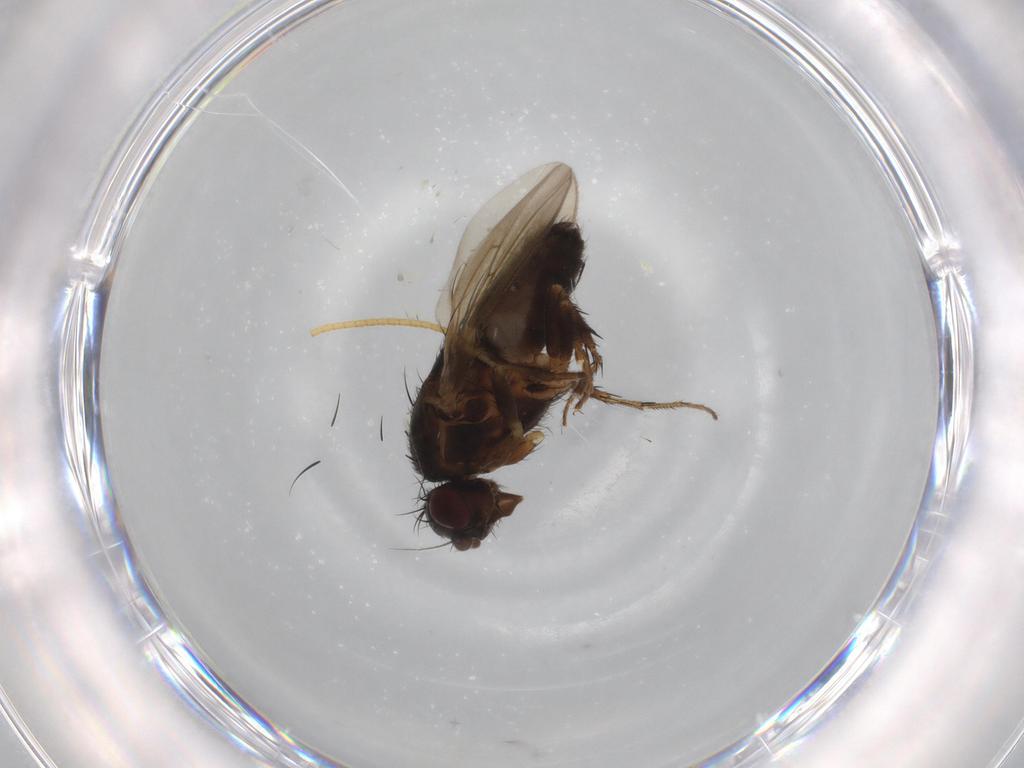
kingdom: Animalia
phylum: Arthropoda
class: Insecta
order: Diptera
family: Sphaeroceridae
